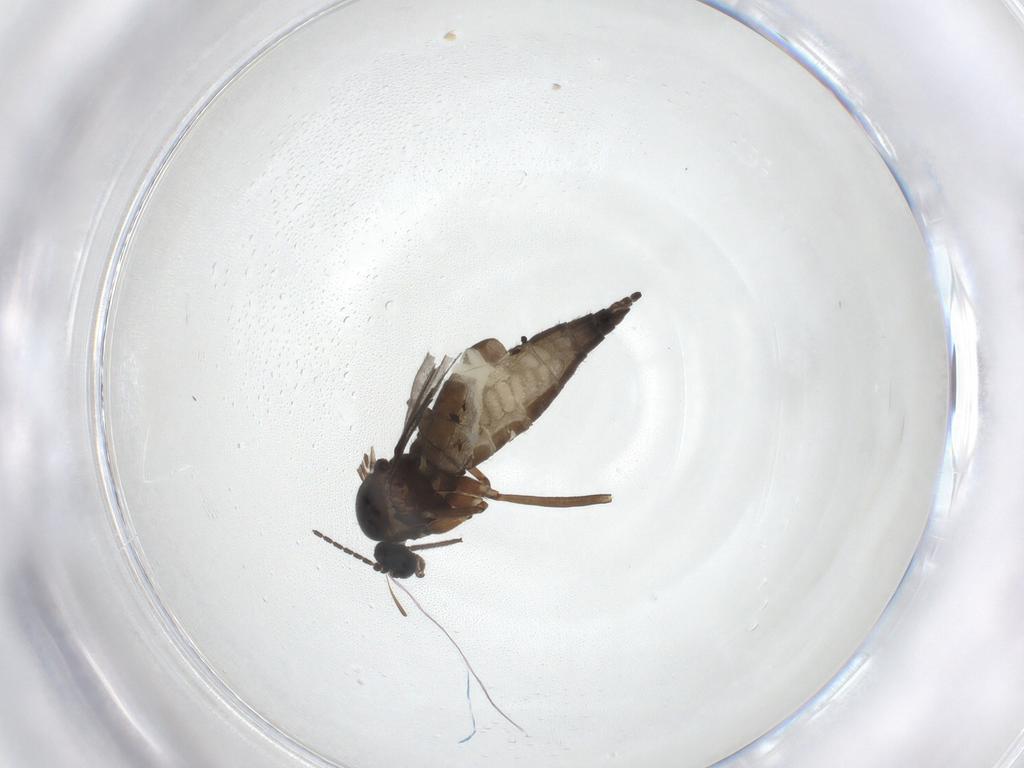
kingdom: Animalia
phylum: Arthropoda
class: Insecta
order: Diptera
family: Sciaridae
